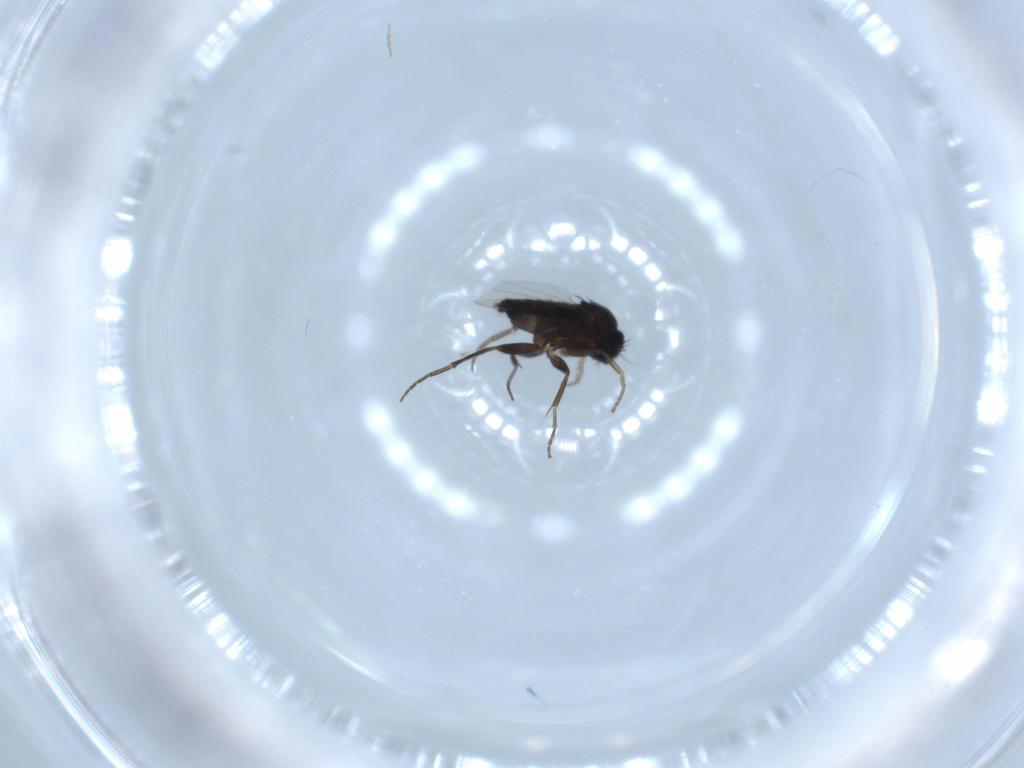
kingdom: Animalia
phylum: Arthropoda
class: Insecta
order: Diptera
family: Phoridae
